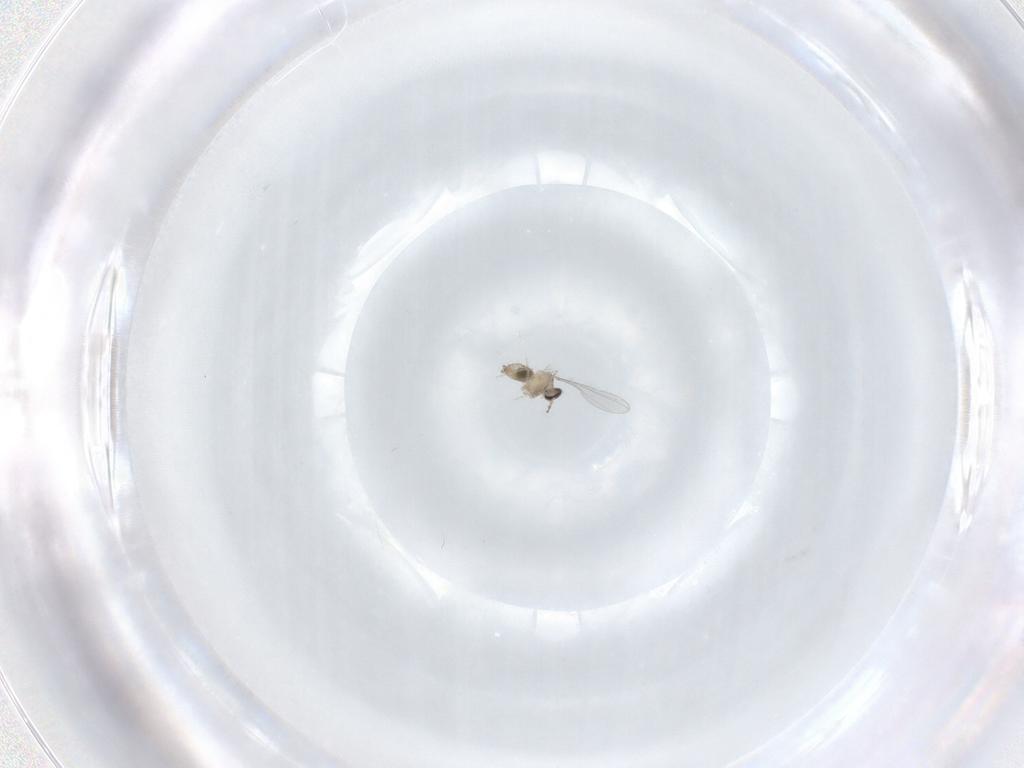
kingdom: Animalia
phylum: Arthropoda
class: Insecta
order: Diptera
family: Cecidomyiidae
